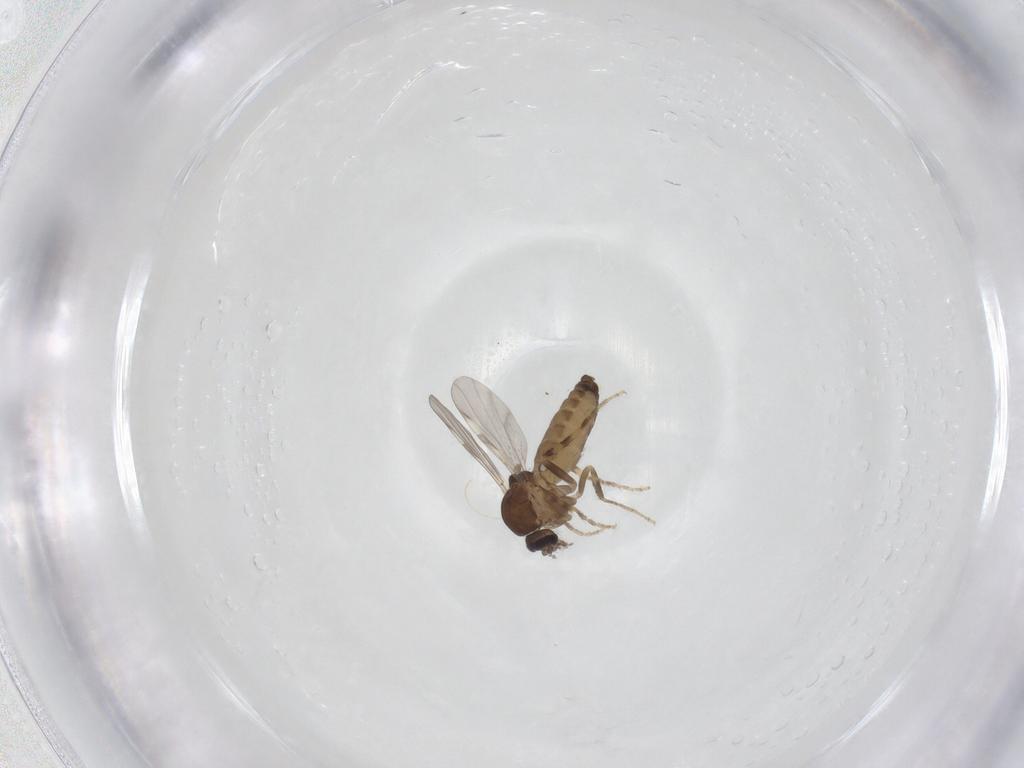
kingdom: Animalia
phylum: Arthropoda
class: Insecta
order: Diptera
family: Ceratopogonidae
